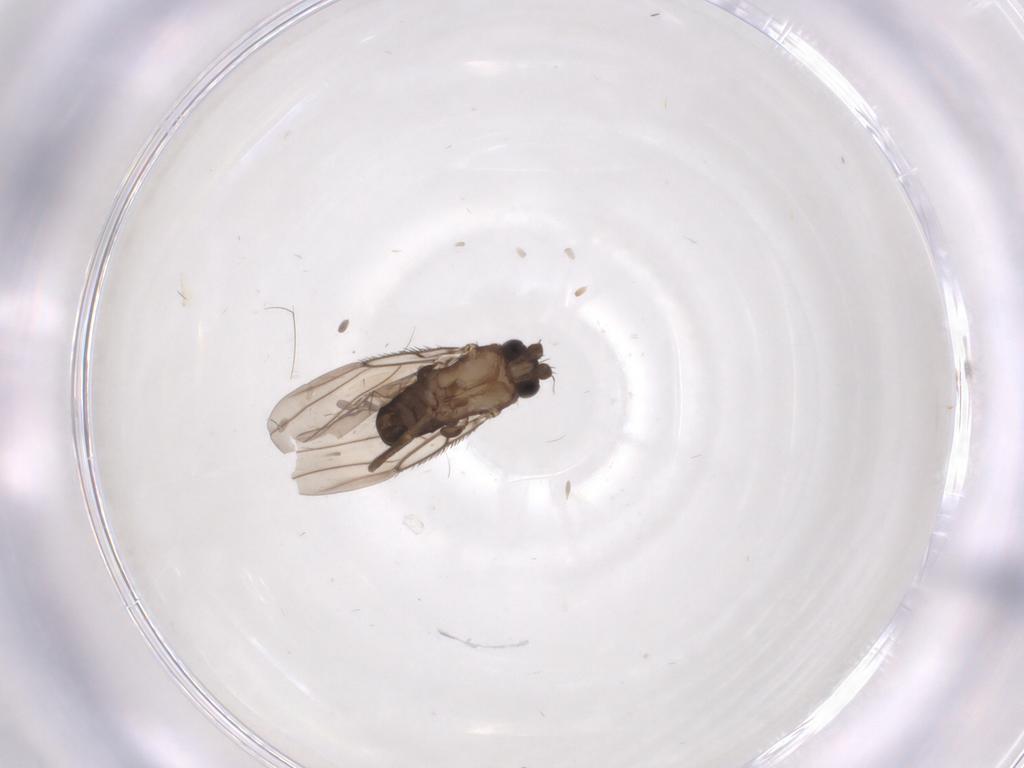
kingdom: Animalia
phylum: Arthropoda
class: Insecta
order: Diptera
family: Phoridae
